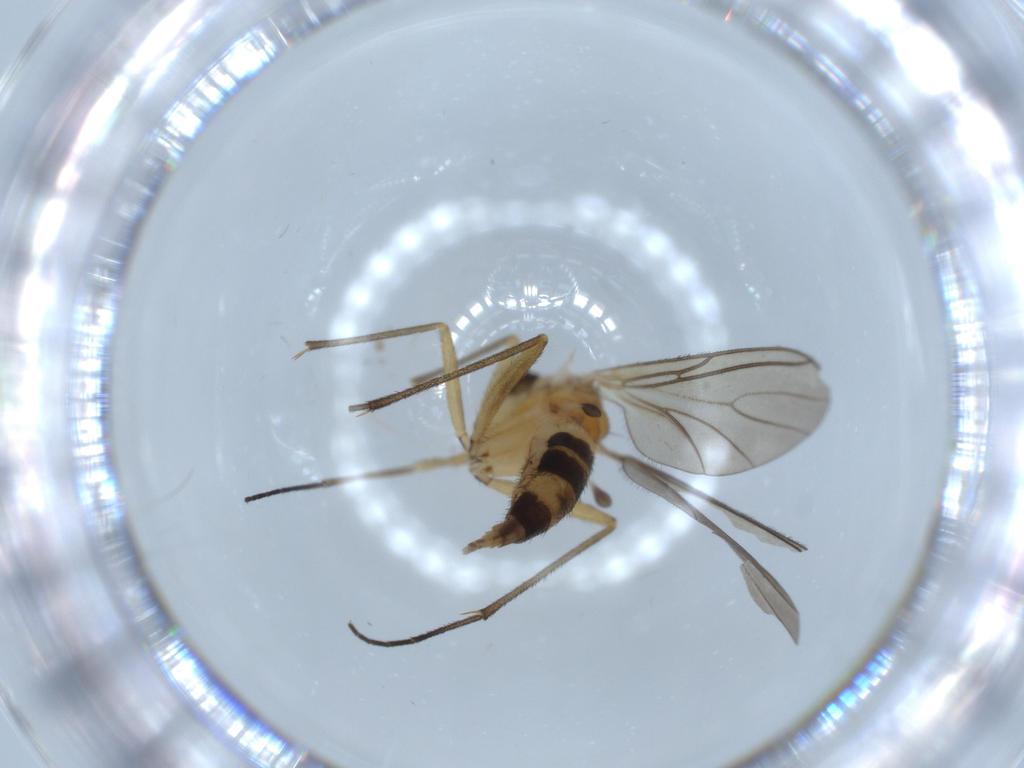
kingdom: Animalia
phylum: Arthropoda
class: Insecta
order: Diptera
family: Sciaridae
